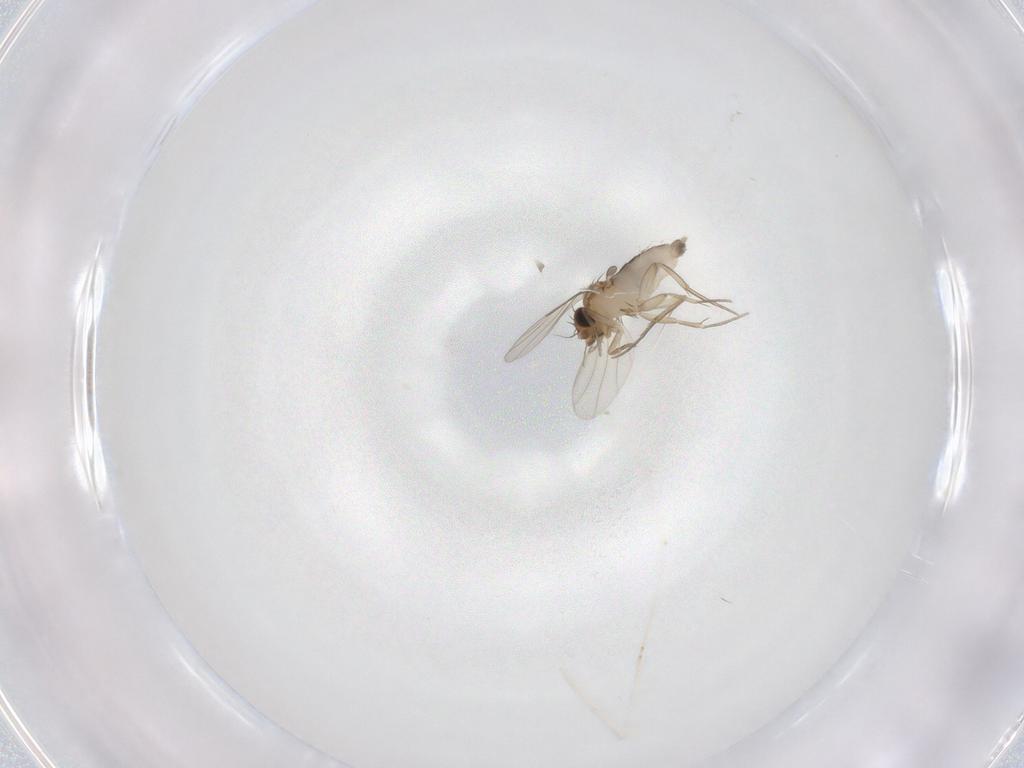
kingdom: Animalia
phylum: Arthropoda
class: Insecta
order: Diptera
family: Phoridae
